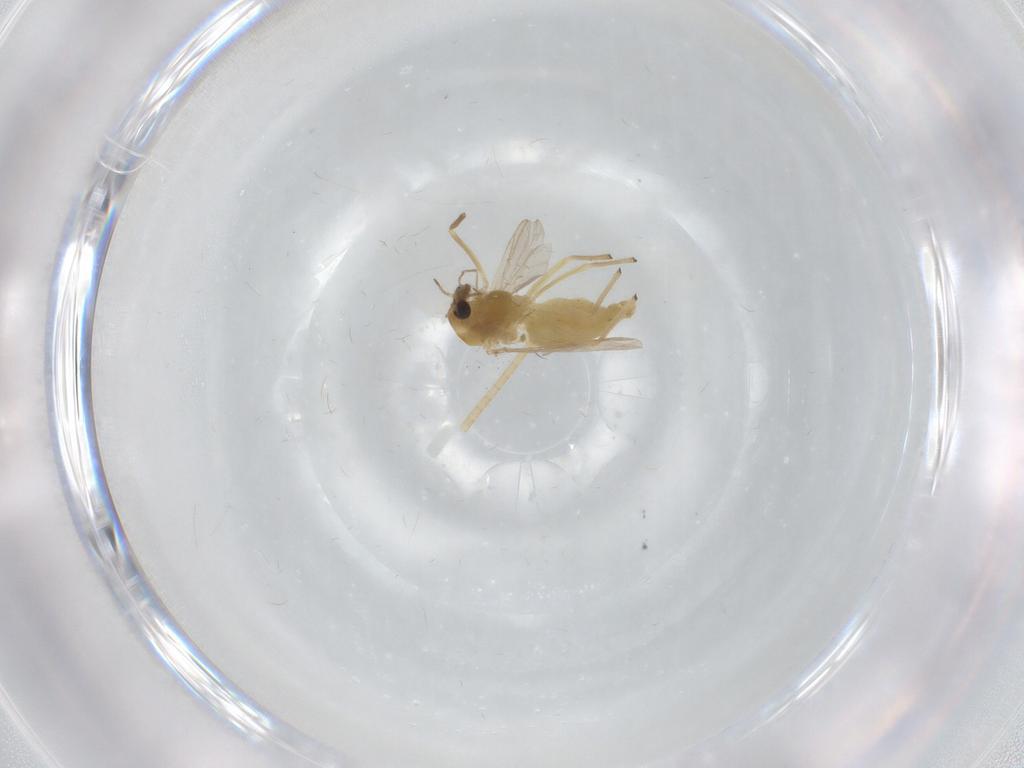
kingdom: Animalia
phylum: Arthropoda
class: Insecta
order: Diptera
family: Chironomidae
